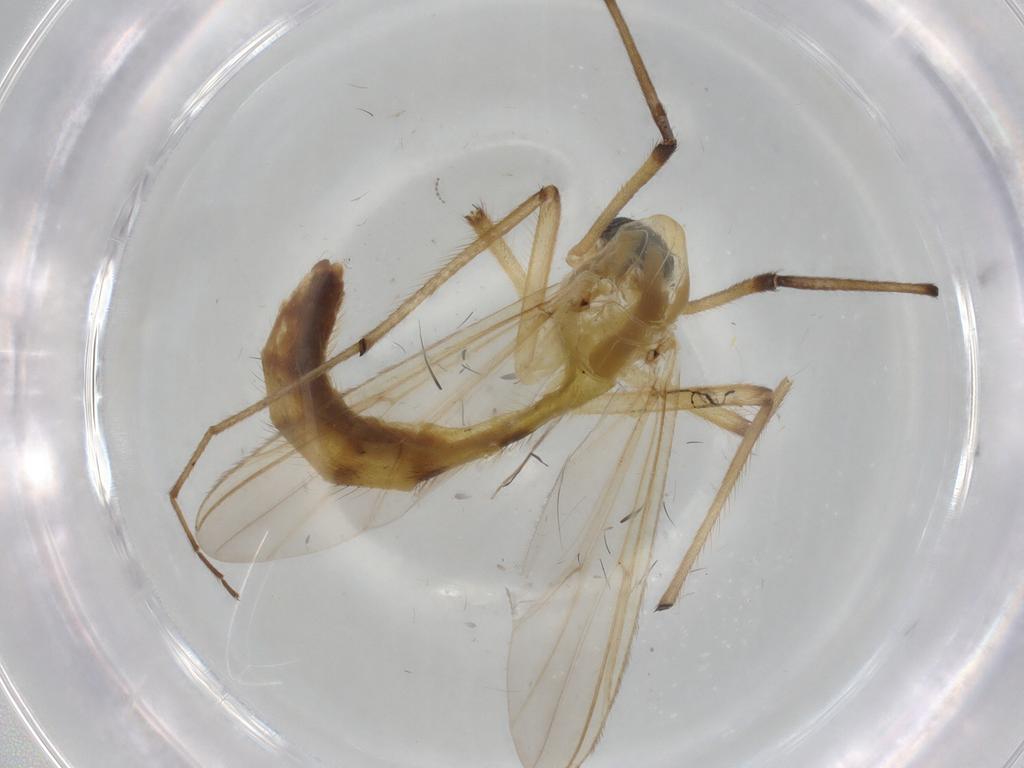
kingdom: Animalia
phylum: Arthropoda
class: Insecta
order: Diptera
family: Chironomidae
